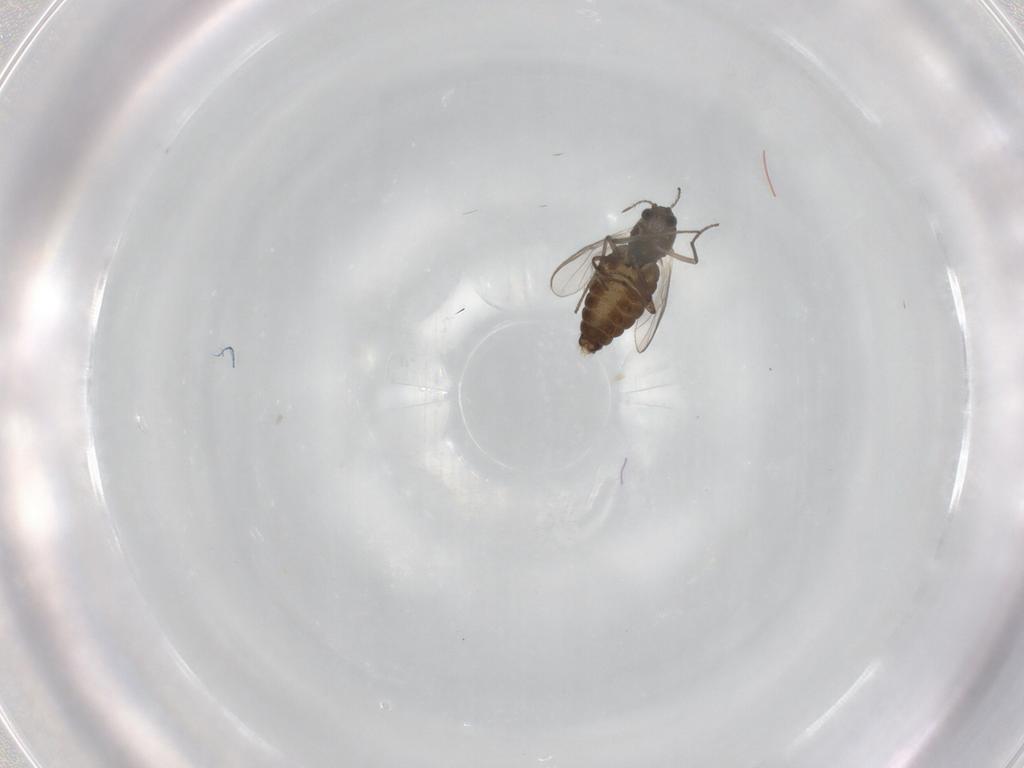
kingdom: Animalia
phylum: Arthropoda
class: Insecta
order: Diptera
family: Chironomidae
